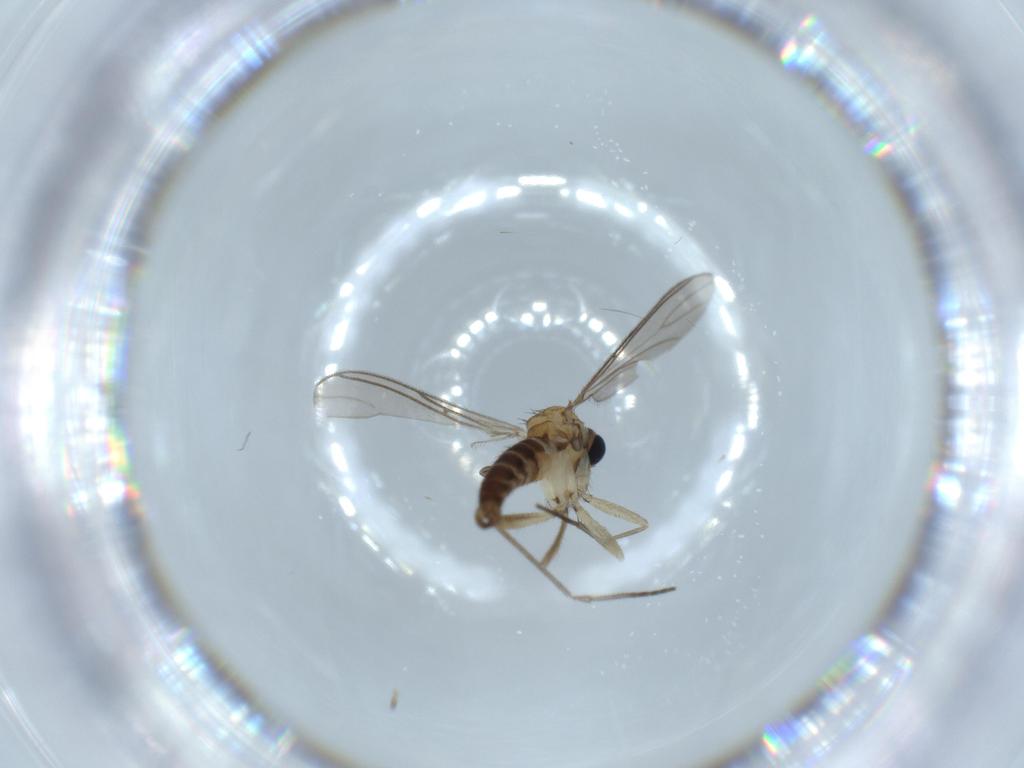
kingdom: Animalia
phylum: Arthropoda
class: Insecta
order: Diptera
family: Sciaridae
